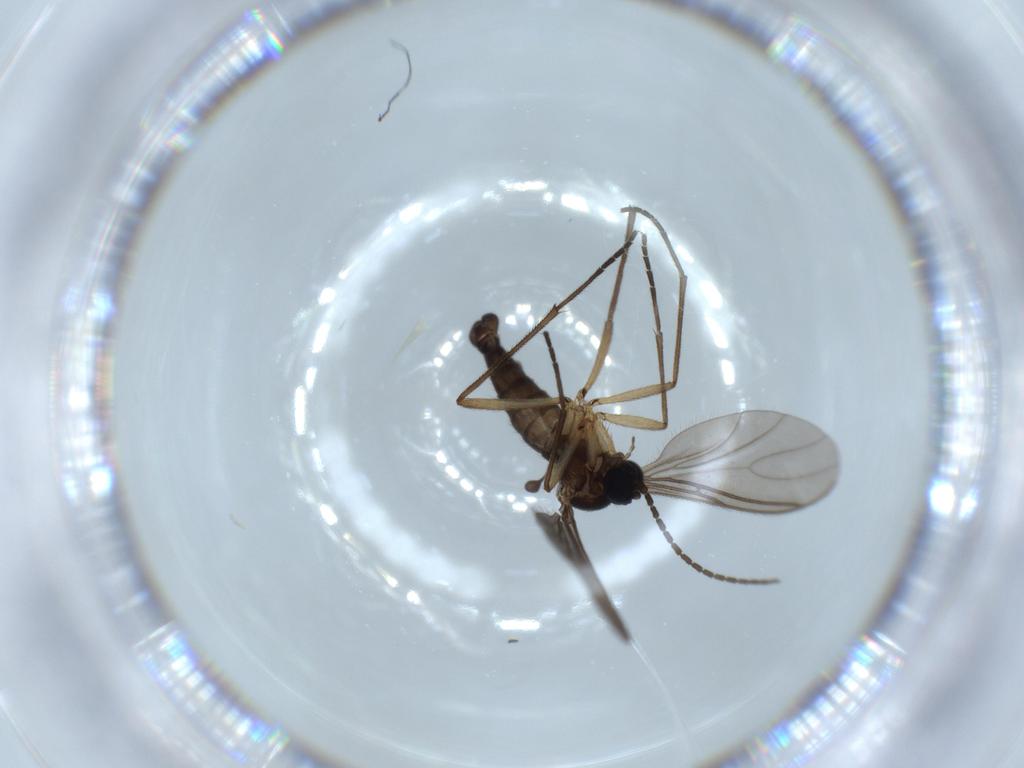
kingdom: Animalia
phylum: Arthropoda
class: Insecta
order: Diptera
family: Sciaridae
